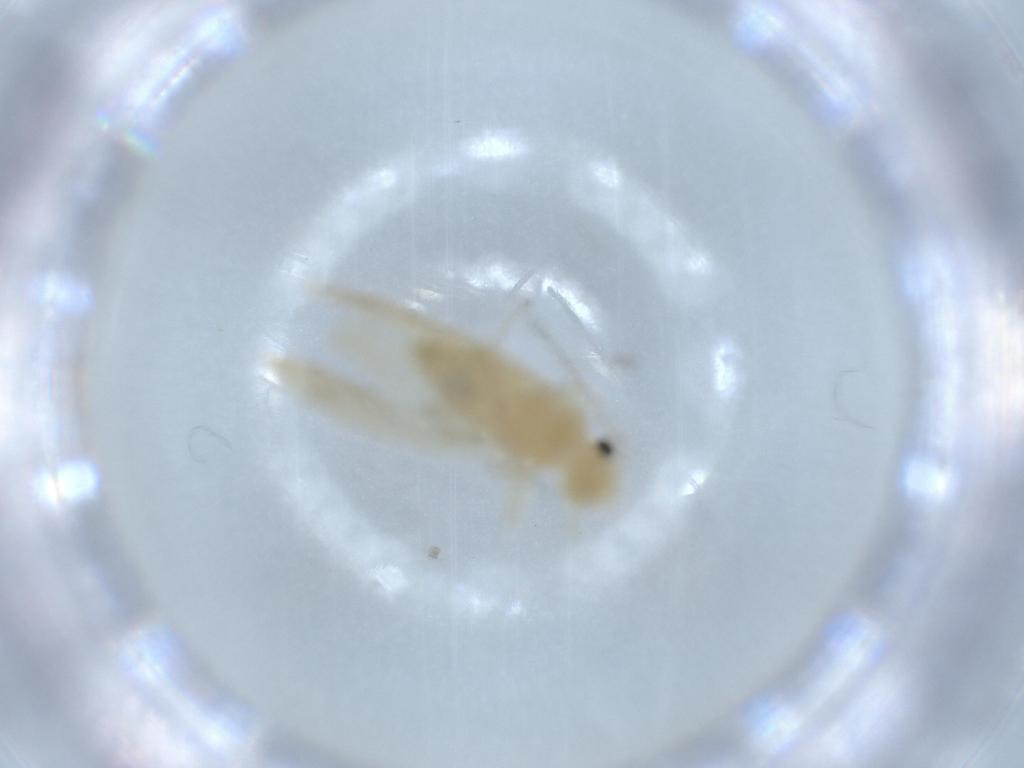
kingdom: Animalia
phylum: Arthropoda
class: Insecta
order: Psocodea
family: Caeciliusidae
